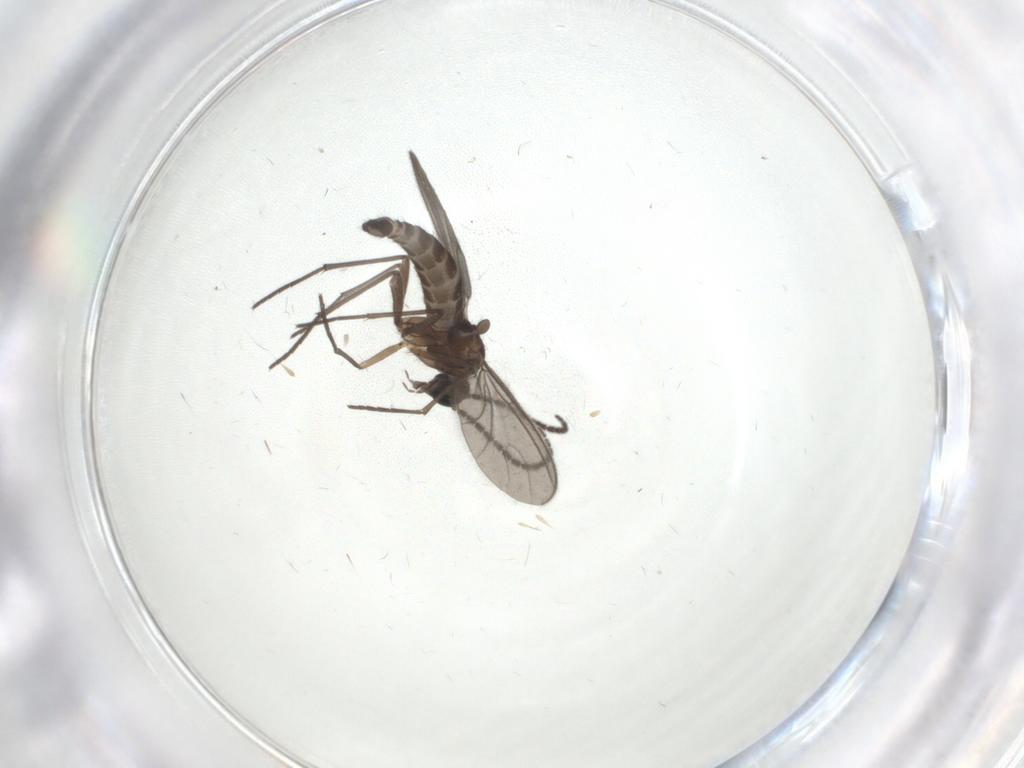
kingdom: Animalia
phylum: Arthropoda
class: Insecta
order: Diptera
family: Sciaridae
